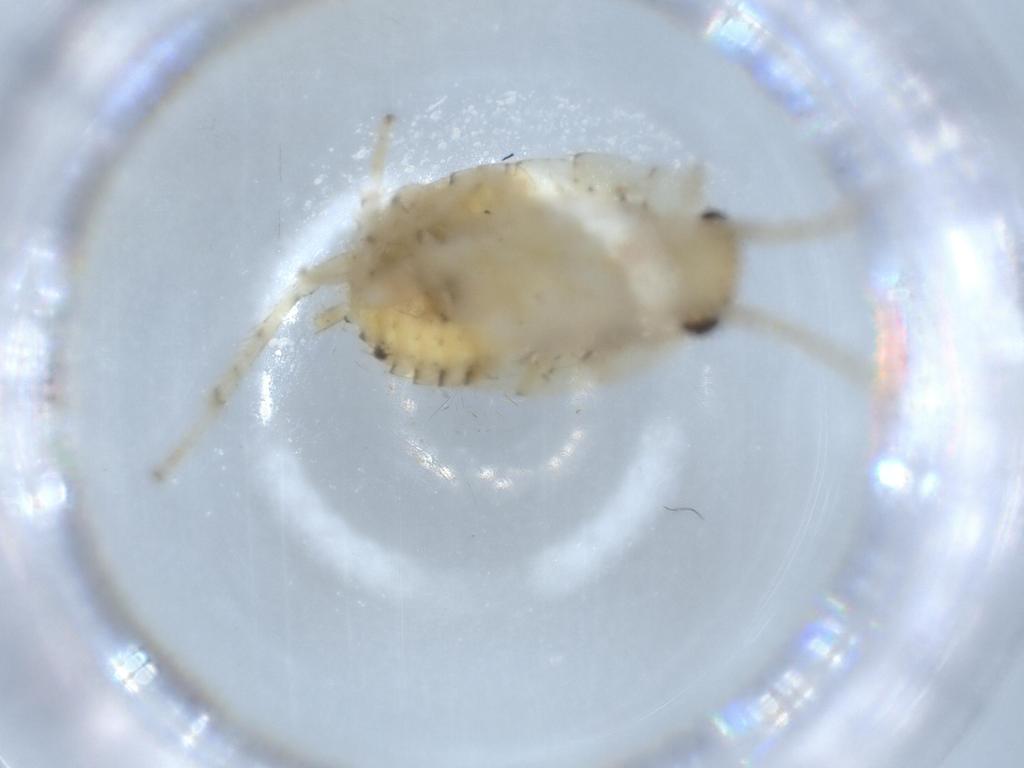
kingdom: Animalia
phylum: Arthropoda
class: Insecta
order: Blattodea
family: Ectobiidae
